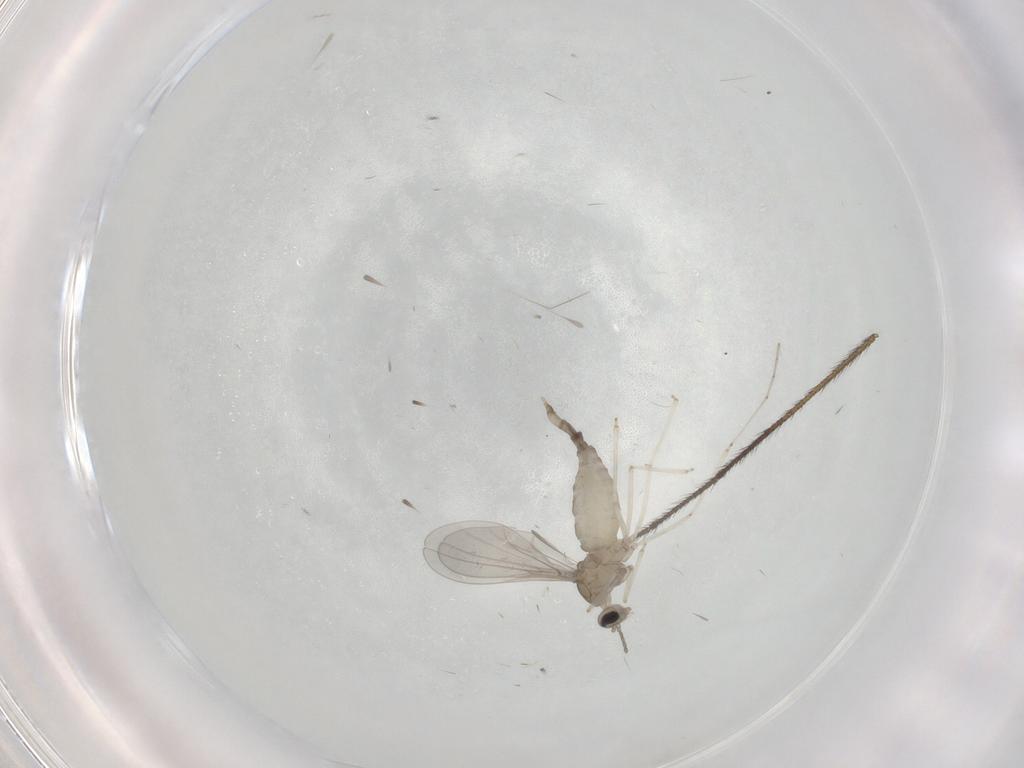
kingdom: Animalia
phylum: Arthropoda
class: Insecta
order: Diptera
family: Limoniidae
